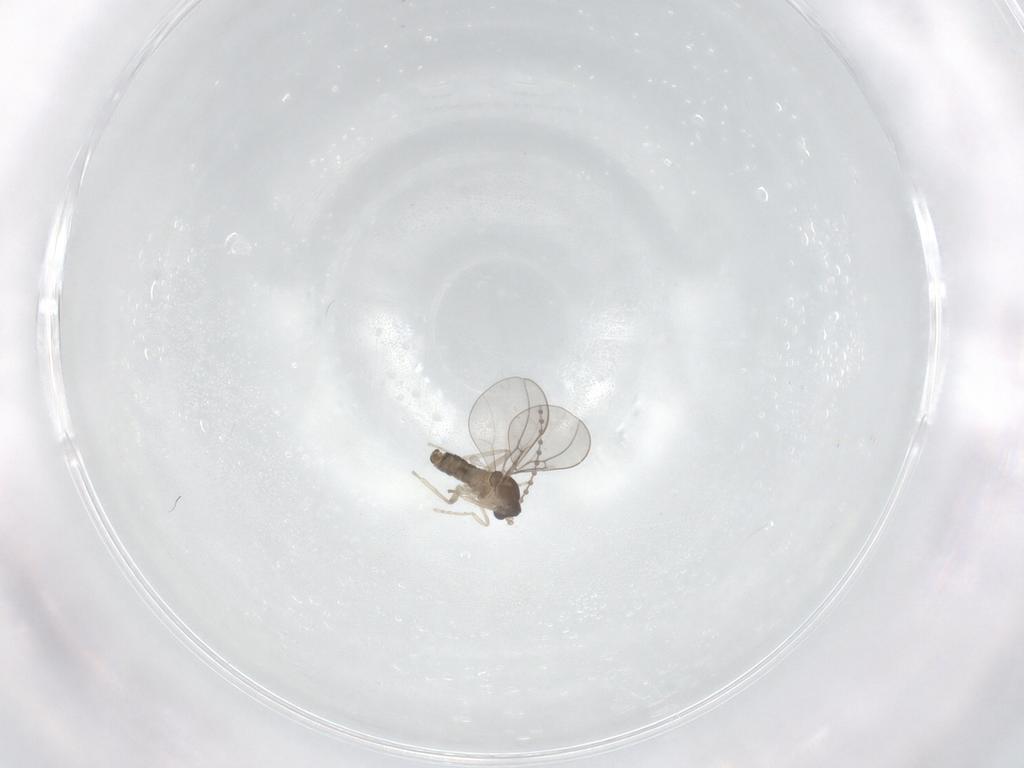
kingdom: Animalia
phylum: Arthropoda
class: Insecta
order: Diptera
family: Cecidomyiidae
